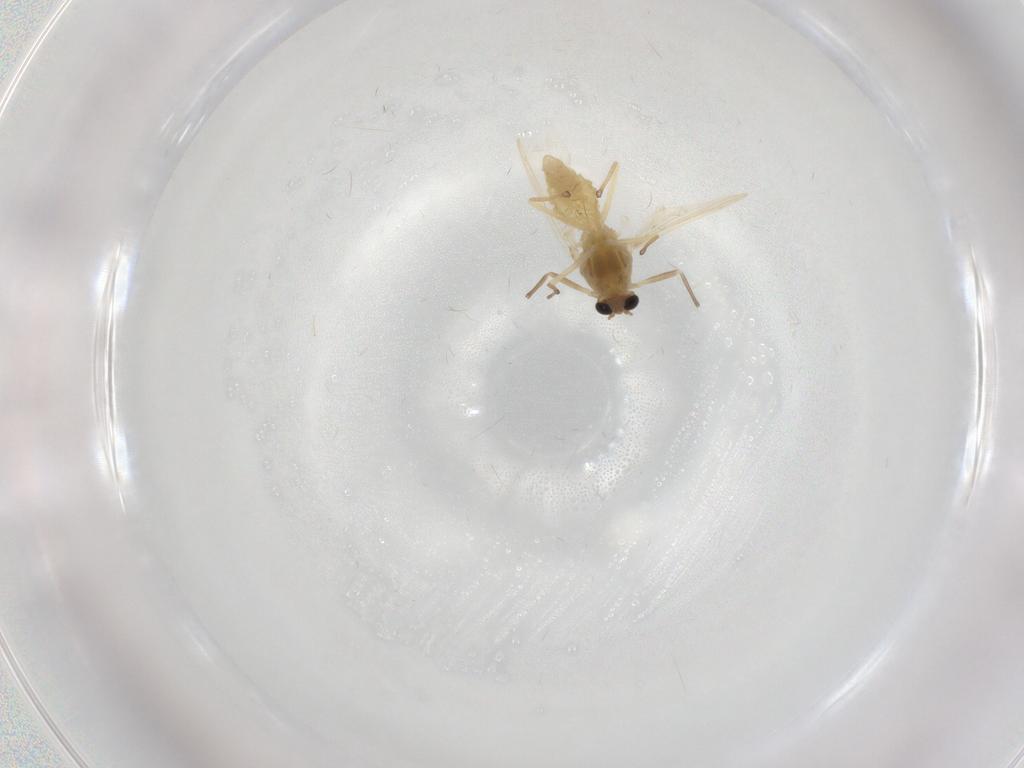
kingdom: Animalia
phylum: Arthropoda
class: Insecta
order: Diptera
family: Chironomidae
